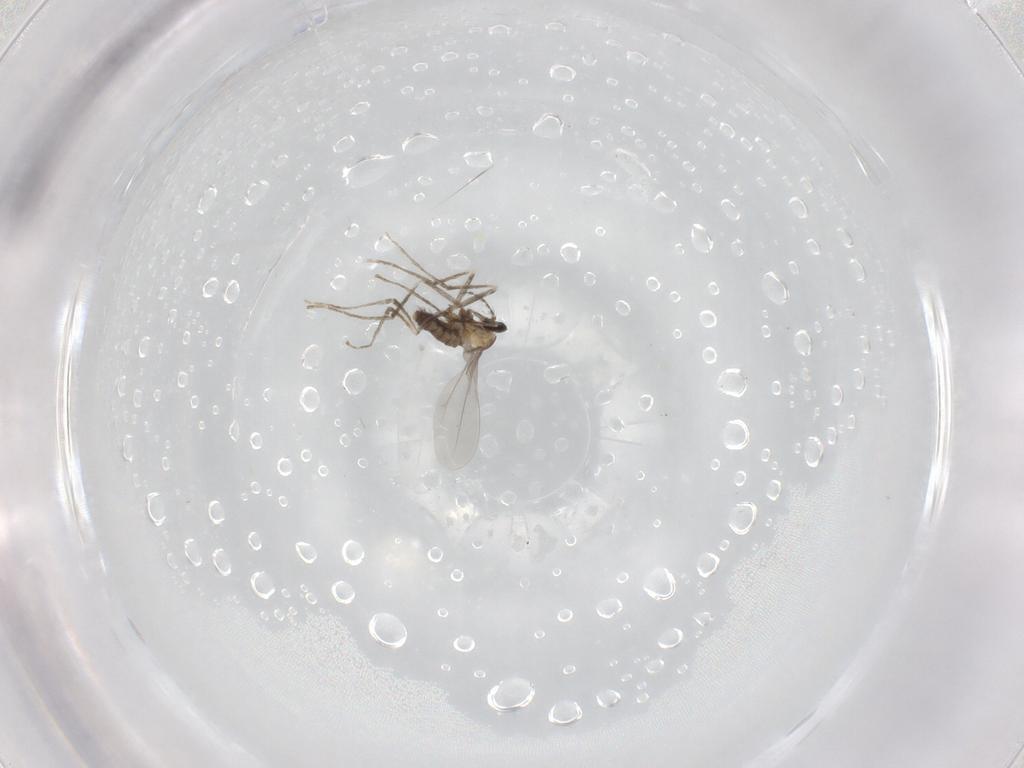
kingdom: Animalia
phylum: Arthropoda
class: Insecta
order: Diptera
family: Cecidomyiidae
